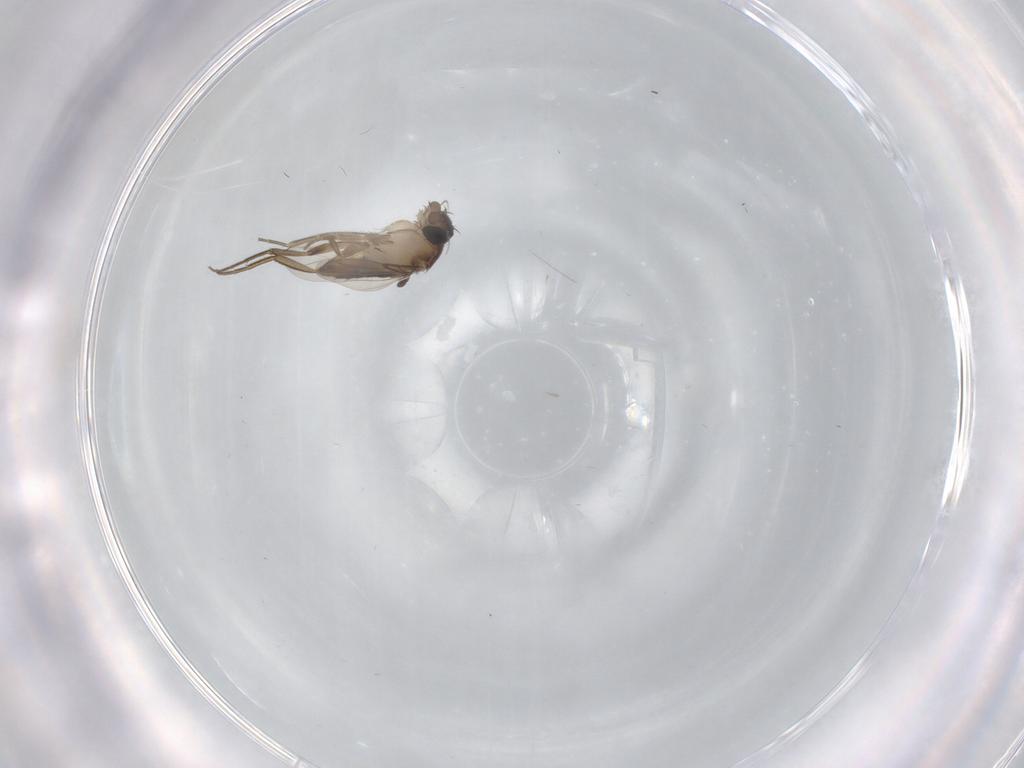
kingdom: Animalia
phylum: Arthropoda
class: Insecta
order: Diptera
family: Phoridae
